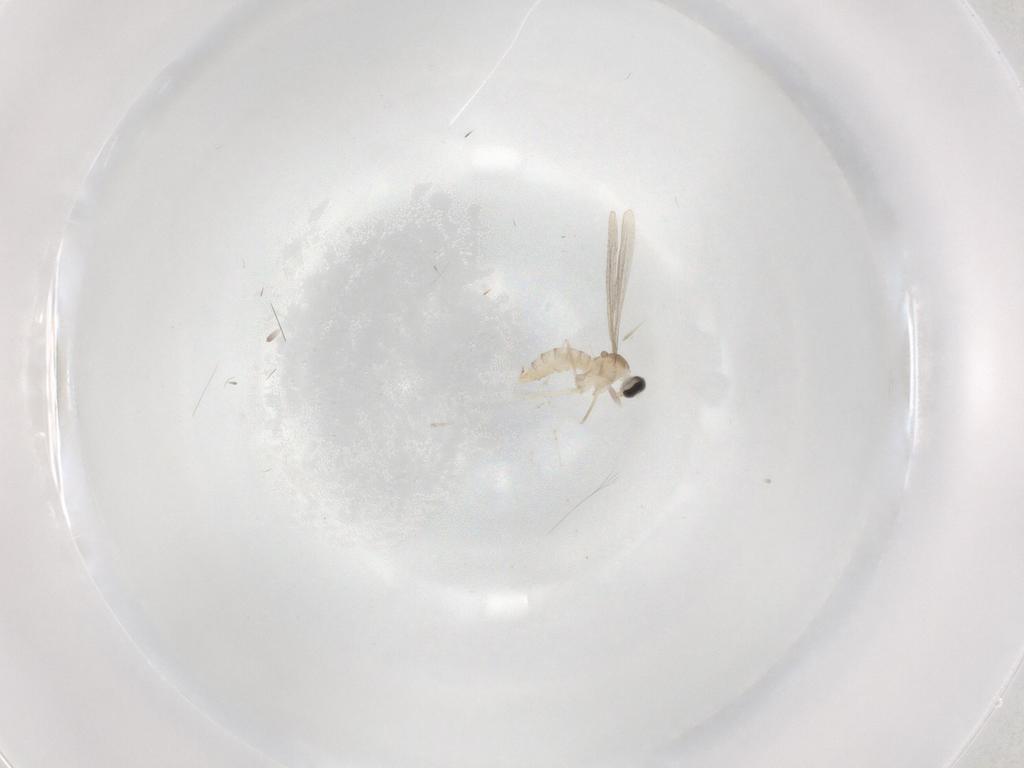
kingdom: Animalia
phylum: Arthropoda
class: Insecta
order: Diptera
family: Cecidomyiidae
